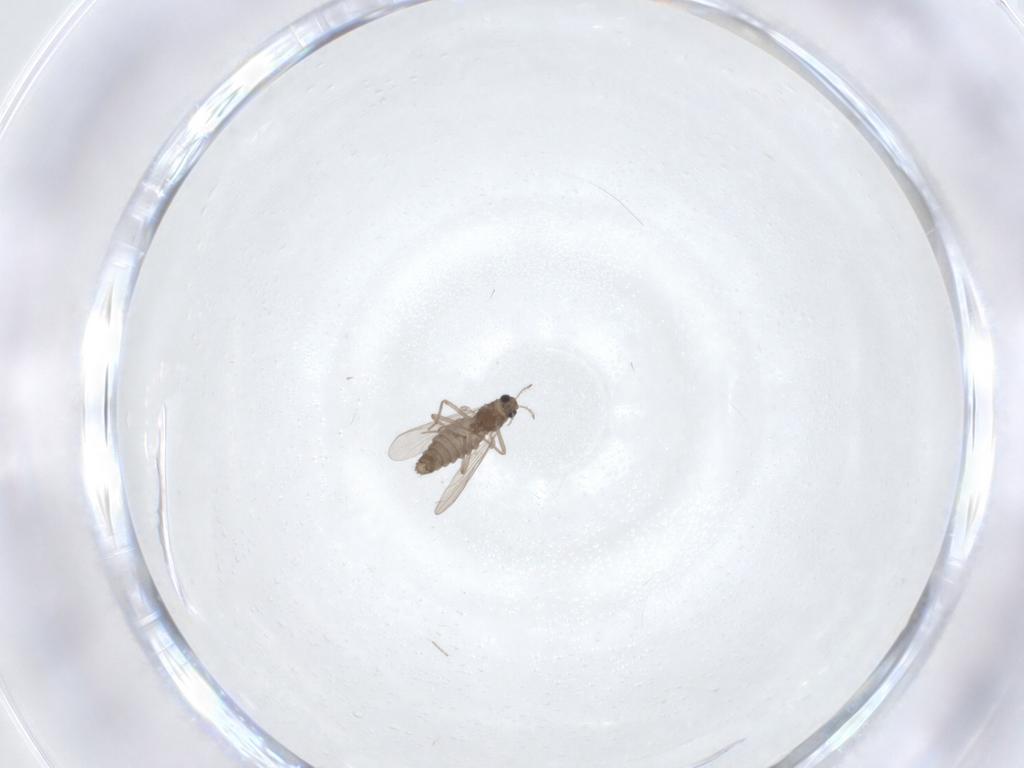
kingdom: Animalia
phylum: Arthropoda
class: Insecta
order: Diptera
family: Chironomidae
